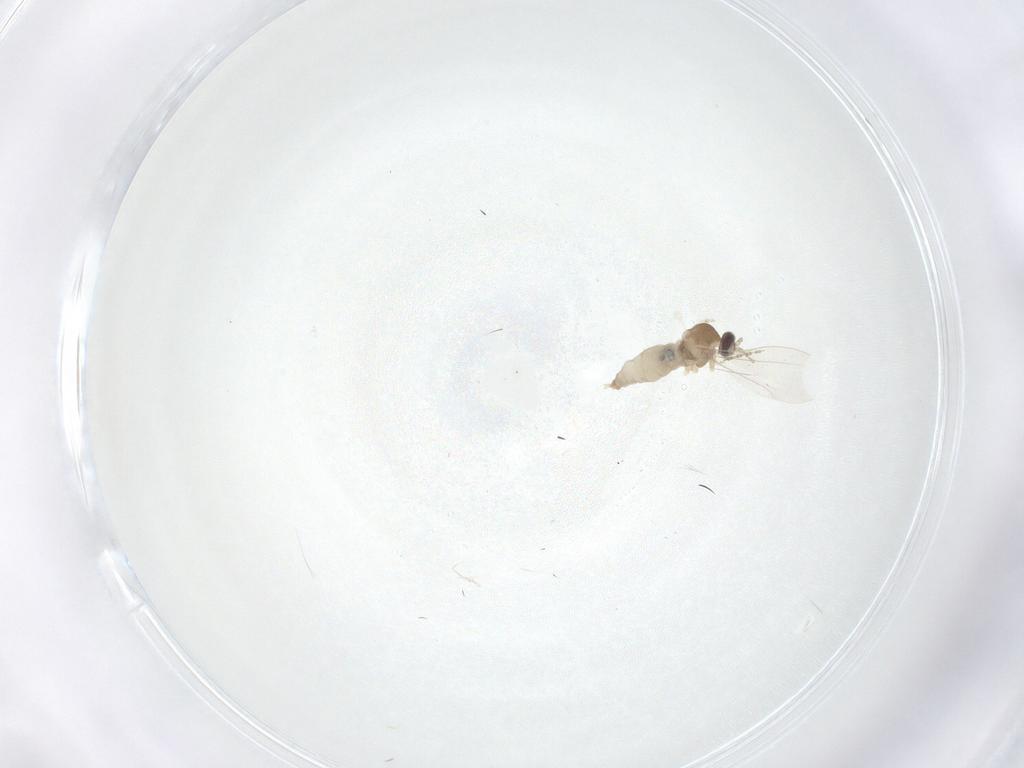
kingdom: Animalia
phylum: Arthropoda
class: Insecta
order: Diptera
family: Cecidomyiidae
